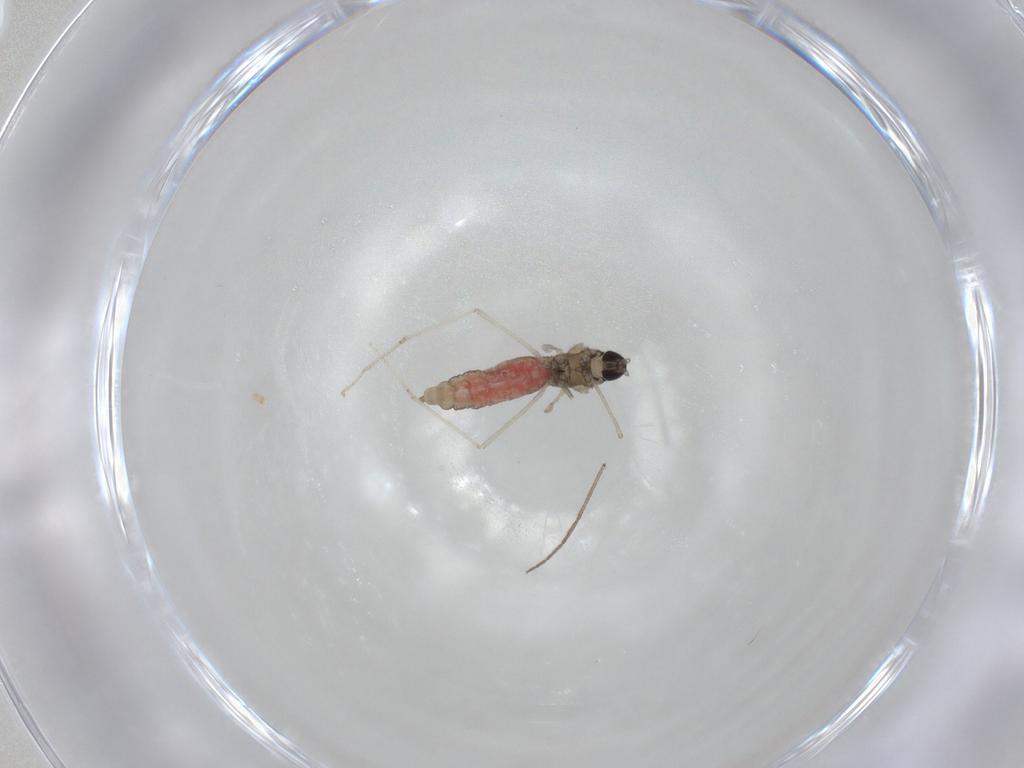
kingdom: Animalia
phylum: Arthropoda
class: Insecta
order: Diptera
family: Cecidomyiidae
